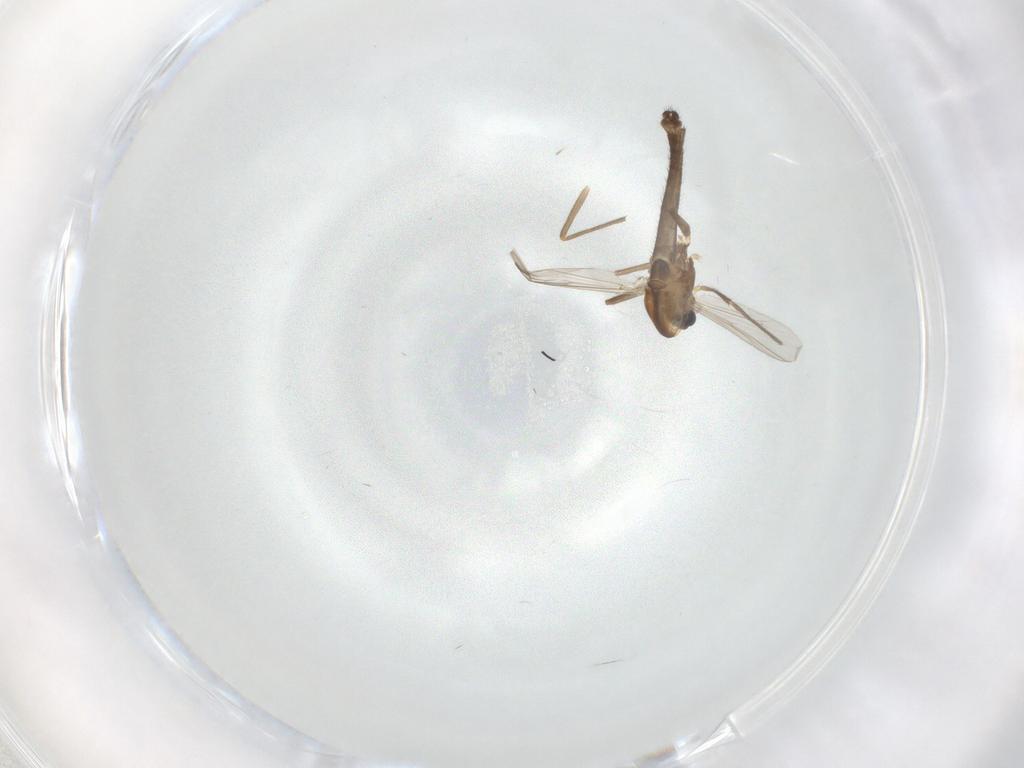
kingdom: Animalia
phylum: Arthropoda
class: Insecta
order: Diptera
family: Chironomidae
